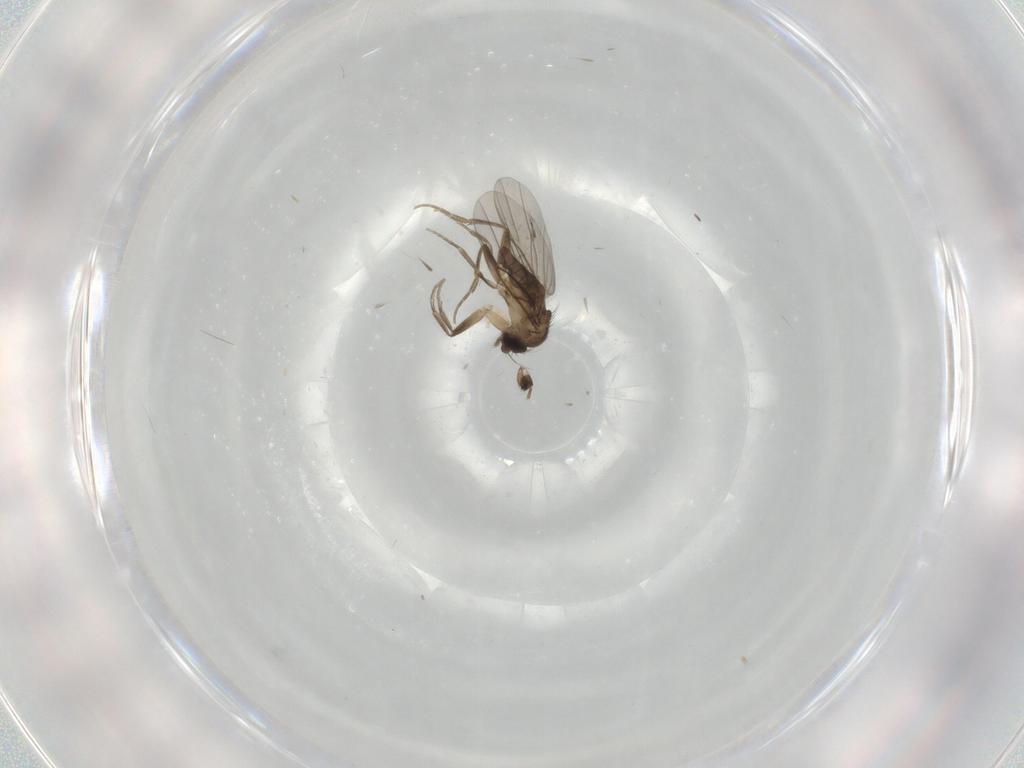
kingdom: Animalia
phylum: Arthropoda
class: Insecta
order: Diptera
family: Phoridae
